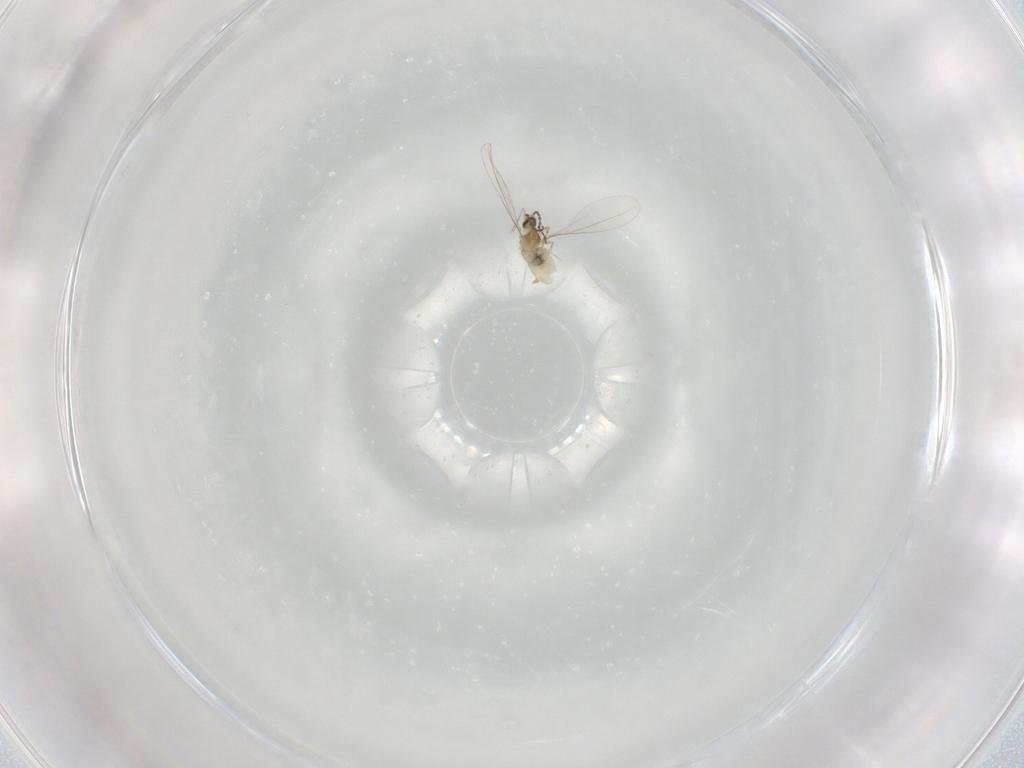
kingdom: Animalia
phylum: Arthropoda
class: Insecta
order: Diptera
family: Cecidomyiidae
